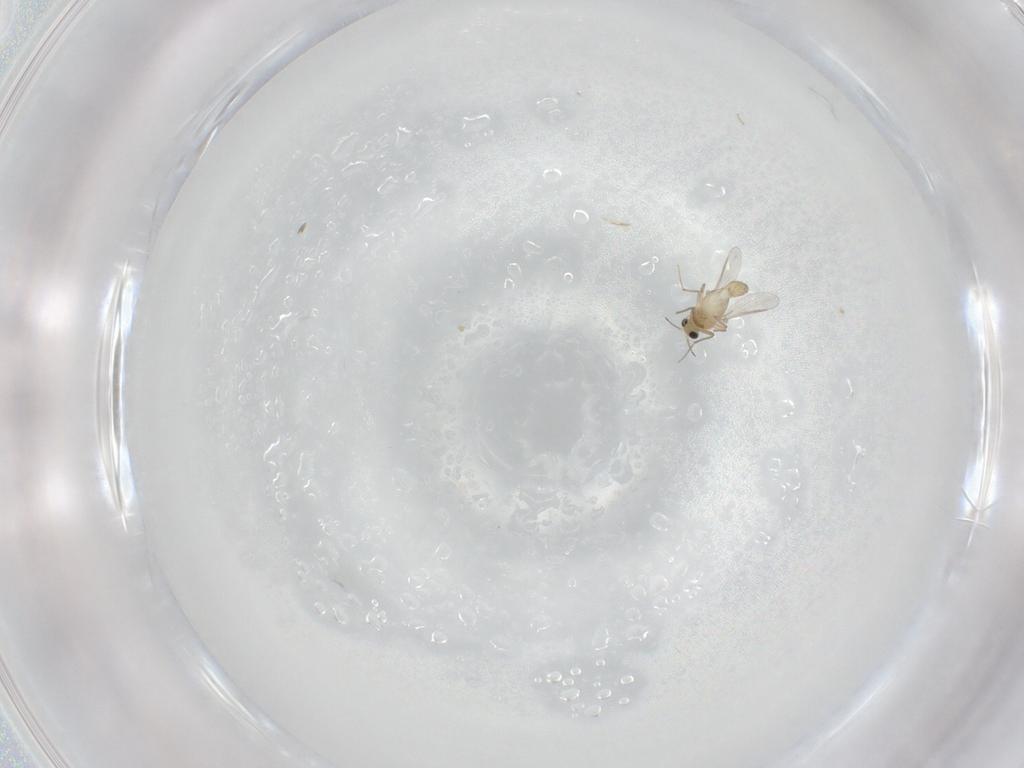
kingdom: Animalia
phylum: Arthropoda
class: Insecta
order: Diptera
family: Chironomidae
